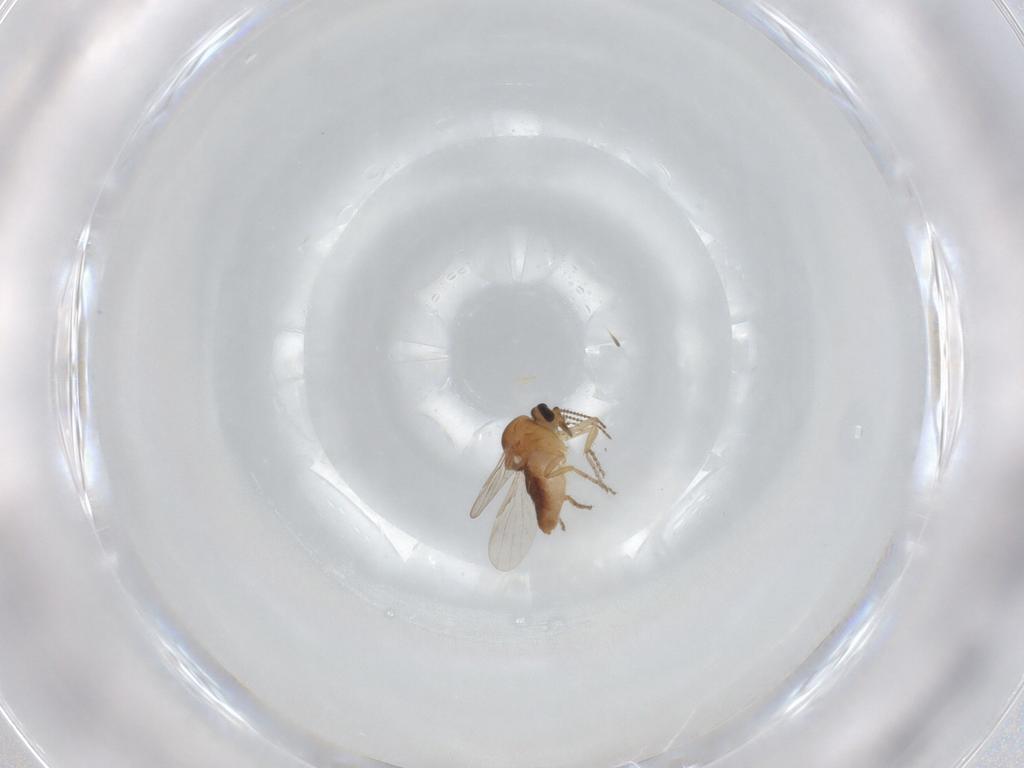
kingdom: Animalia
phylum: Arthropoda
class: Insecta
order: Diptera
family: Ceratopogonidae
